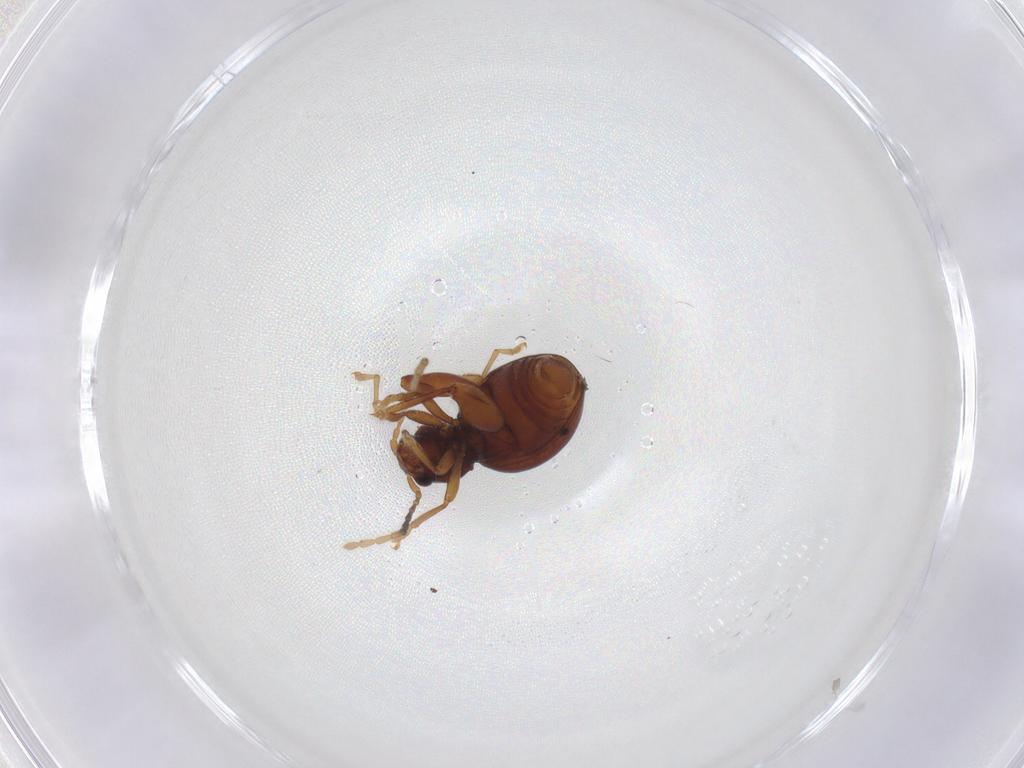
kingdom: Animalia
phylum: Arthropoda
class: Insecta
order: Coleoptera
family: Chrysomelidae
